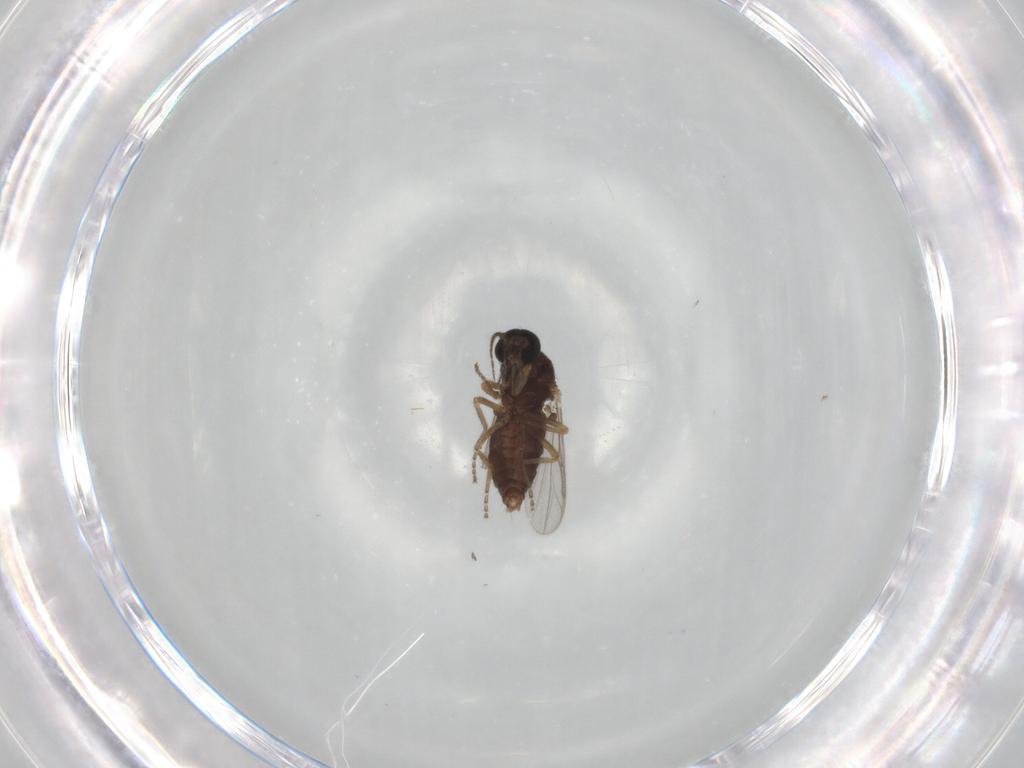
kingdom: Animalia
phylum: Arthropoda
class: Insecta
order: Diptera
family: Ceratopogonidae
